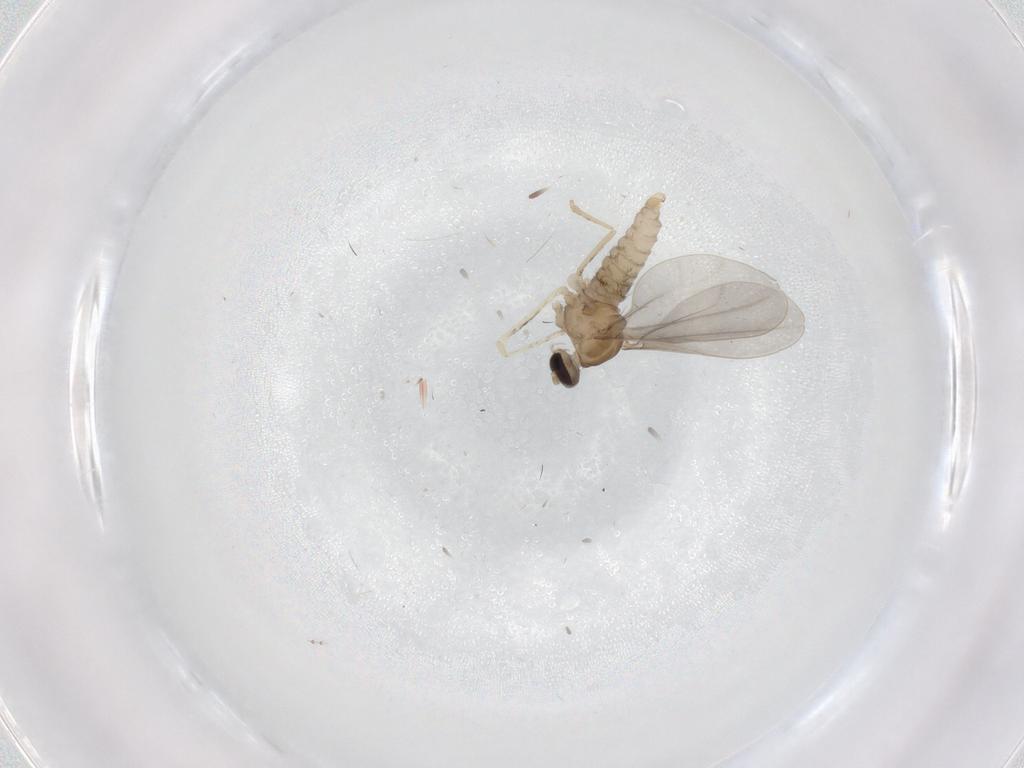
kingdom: Animalia
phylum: Arthropoda
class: Insecta
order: Diptera
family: Cecidomyiidae
